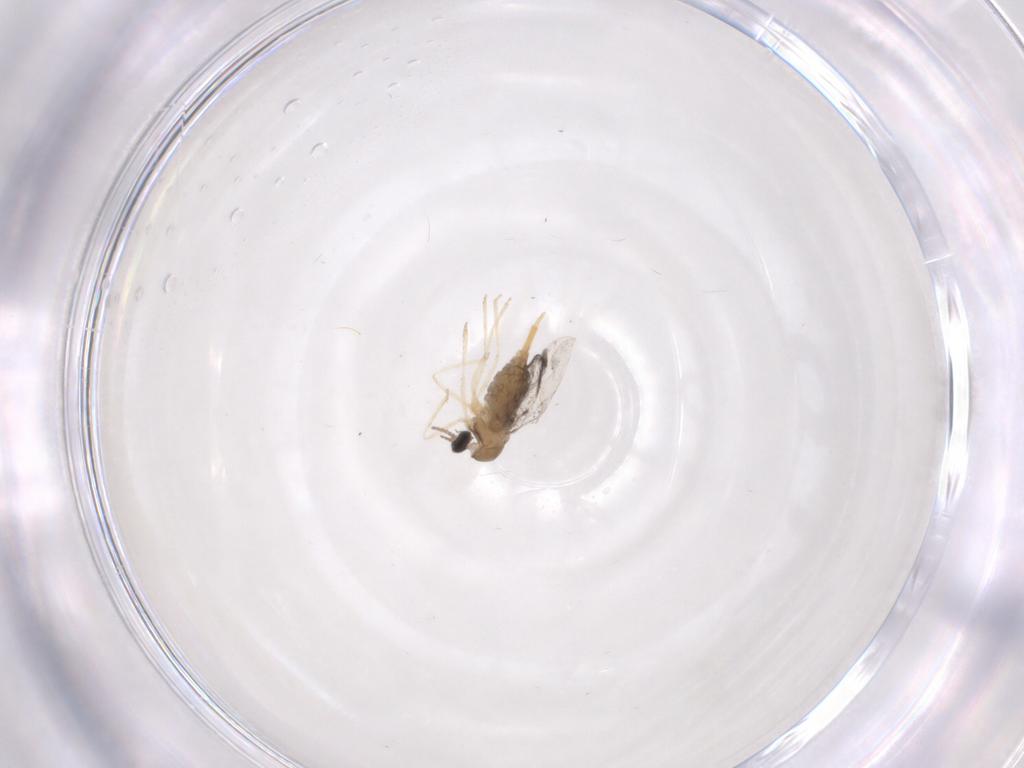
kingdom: Animalia
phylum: Arthropoda
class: Insecta
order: Diptera
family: Cecidomyiidae
